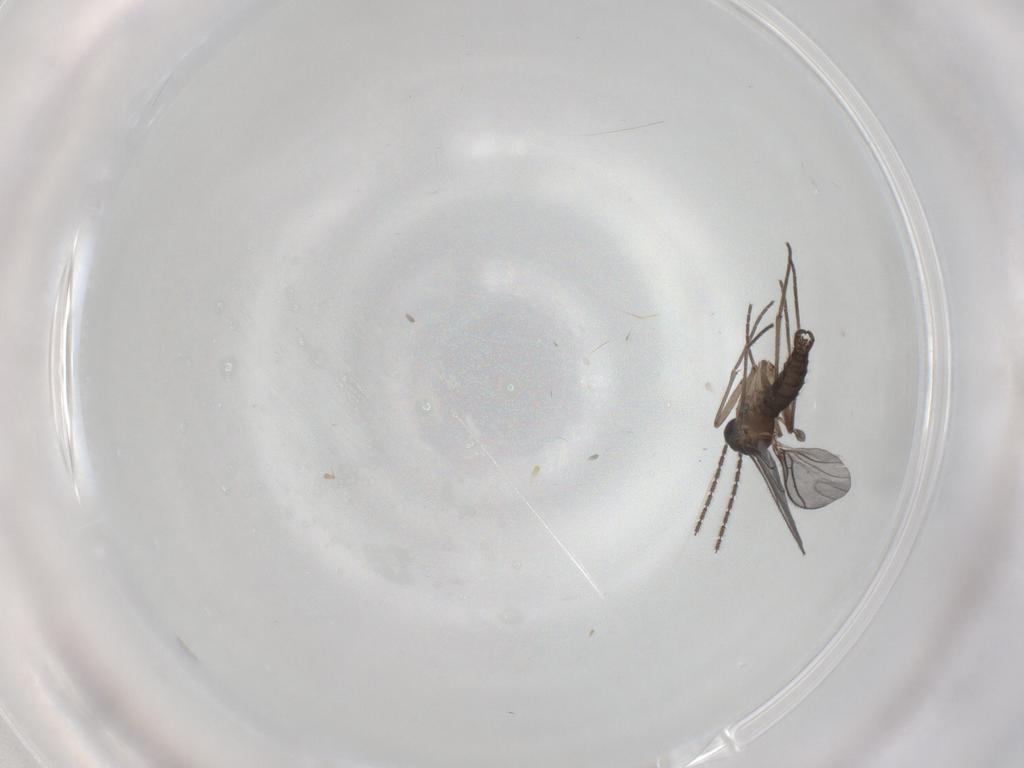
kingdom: Animalia
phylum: Arthropoda
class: Insecta
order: Diptera
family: Sciaridae
